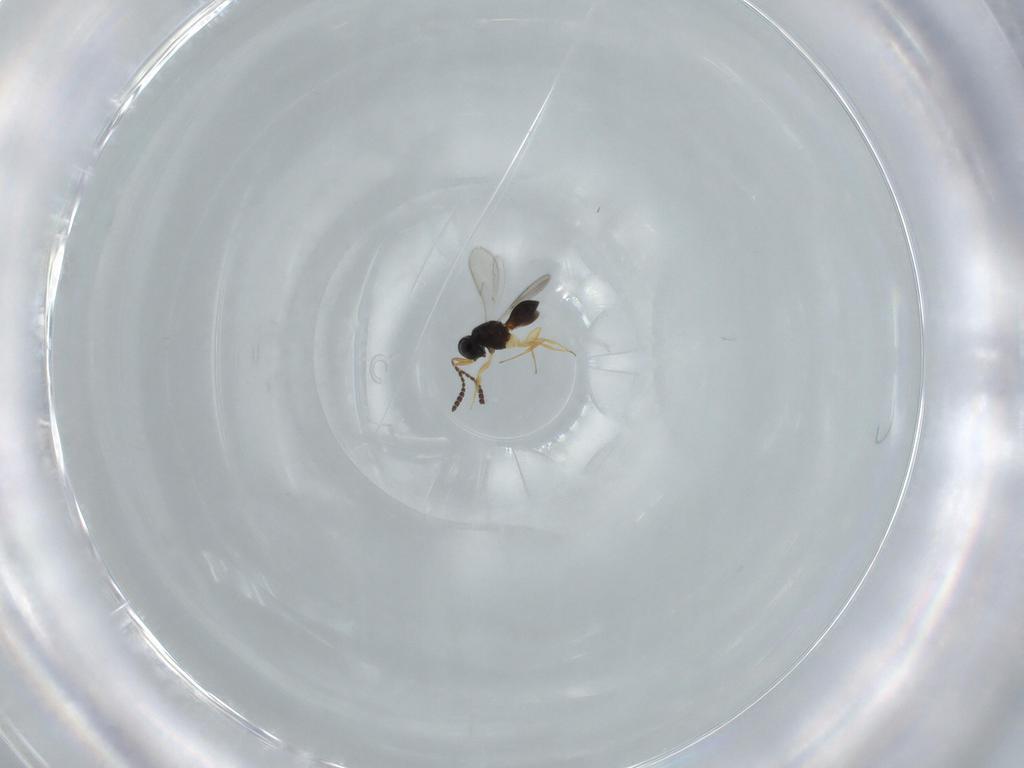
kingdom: Animalia
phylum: Arthropoda
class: Insecta
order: Hymenoptera
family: Scelionidae
